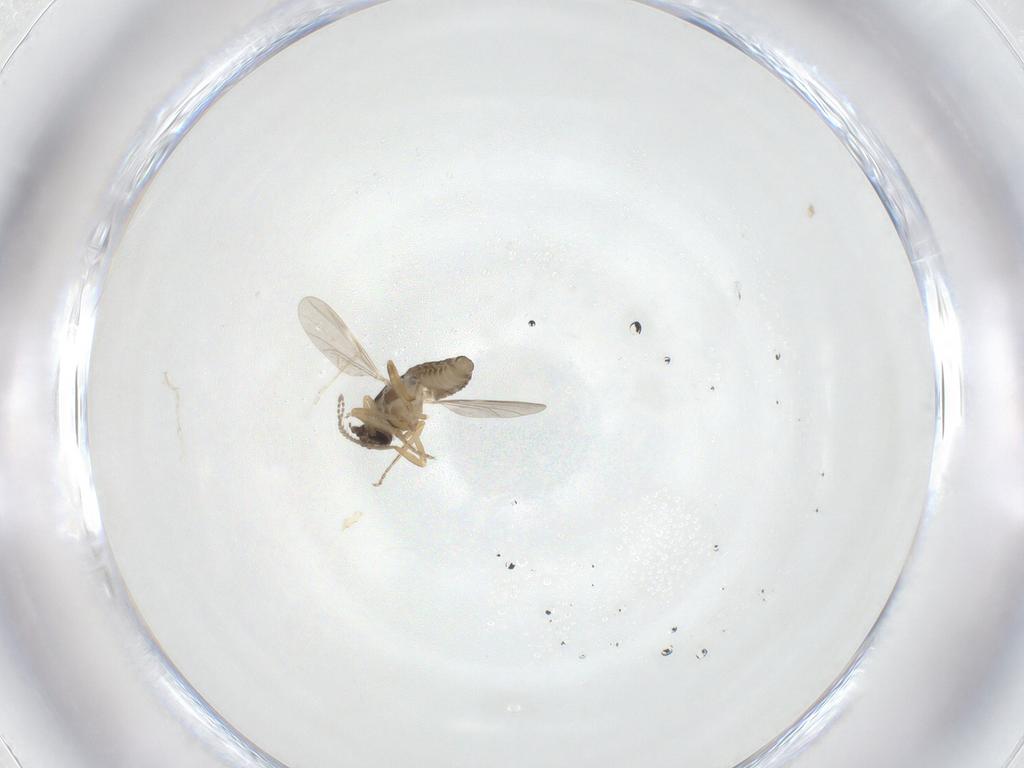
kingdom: Animalia
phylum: Arthropoda
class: Insecta
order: Diptera
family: Ceratopogonidae
